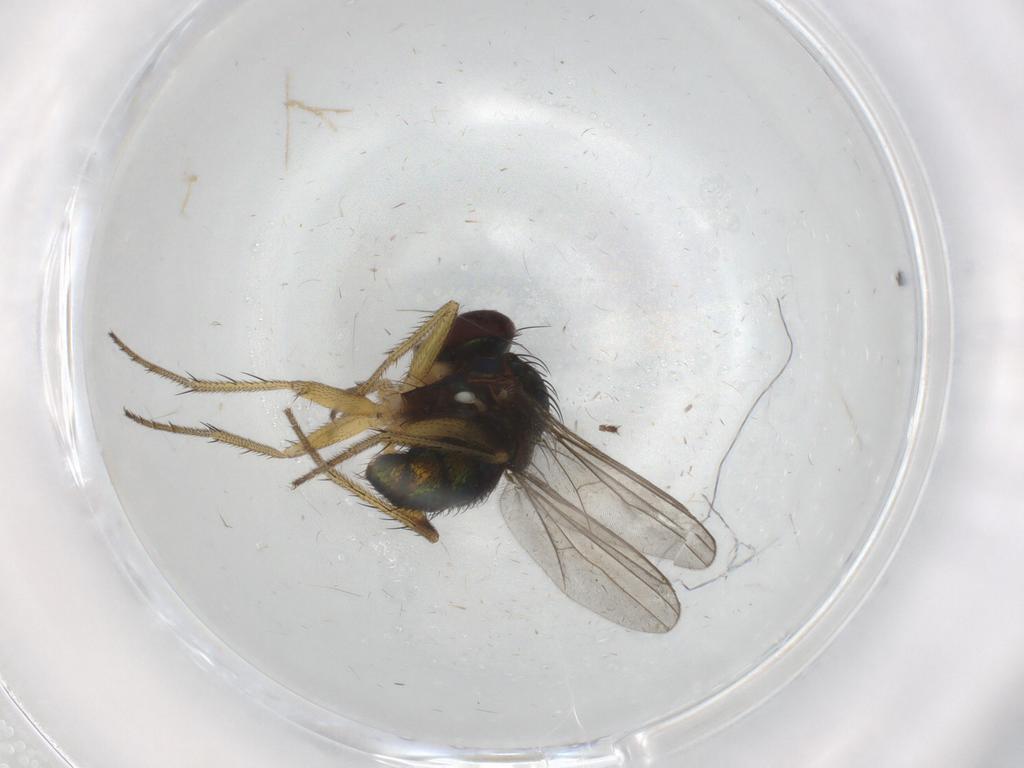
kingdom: Animalia
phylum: Arthropoda
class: Insecta
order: Diptera
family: Dolichopodidae
